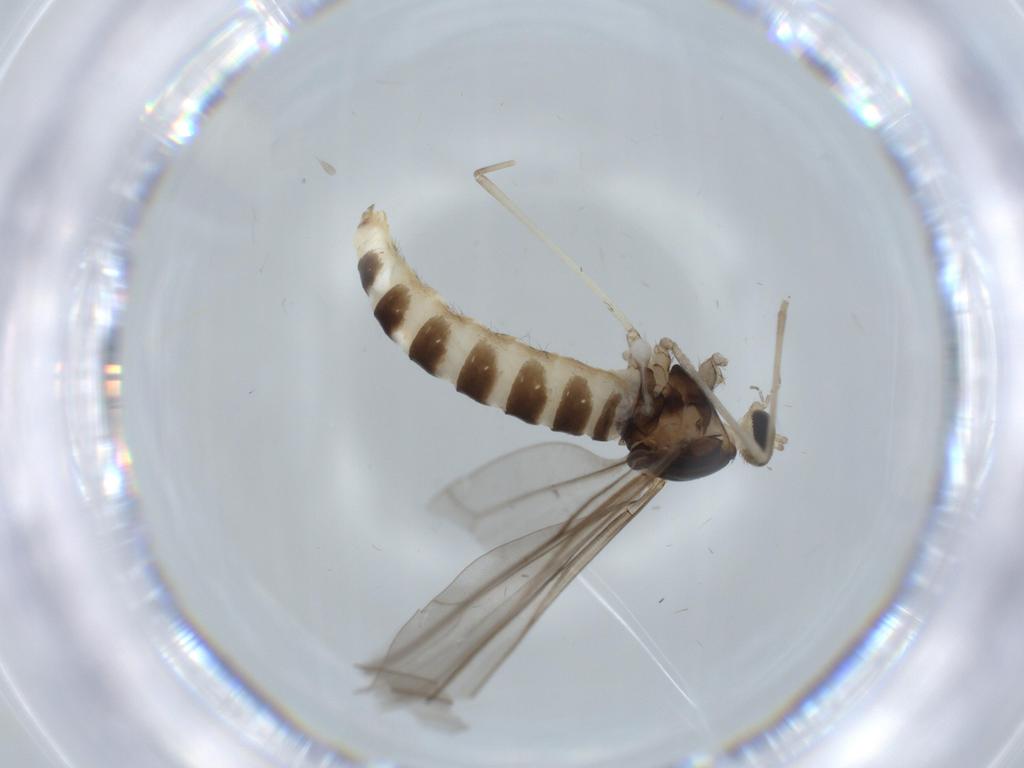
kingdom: Animalia
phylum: Arthropoda
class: Insecta
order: Diptera
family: Cecidomyiidae
